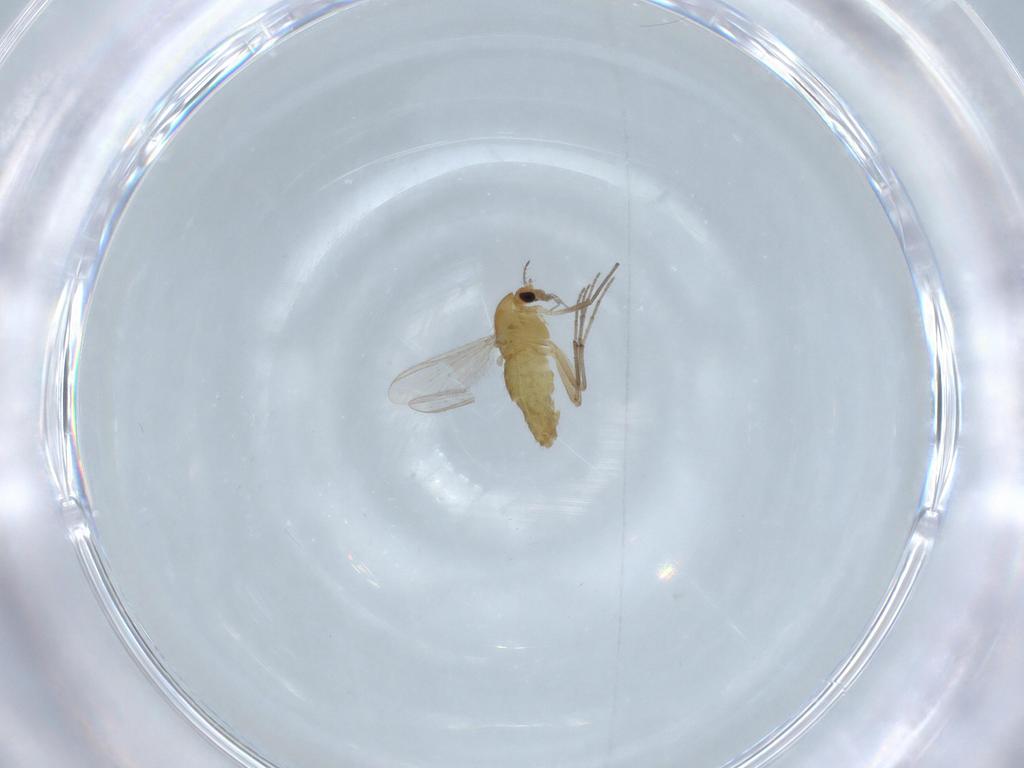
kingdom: Animalia
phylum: Arthropoda
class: Insecta
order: Diptera
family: Chironomidae
